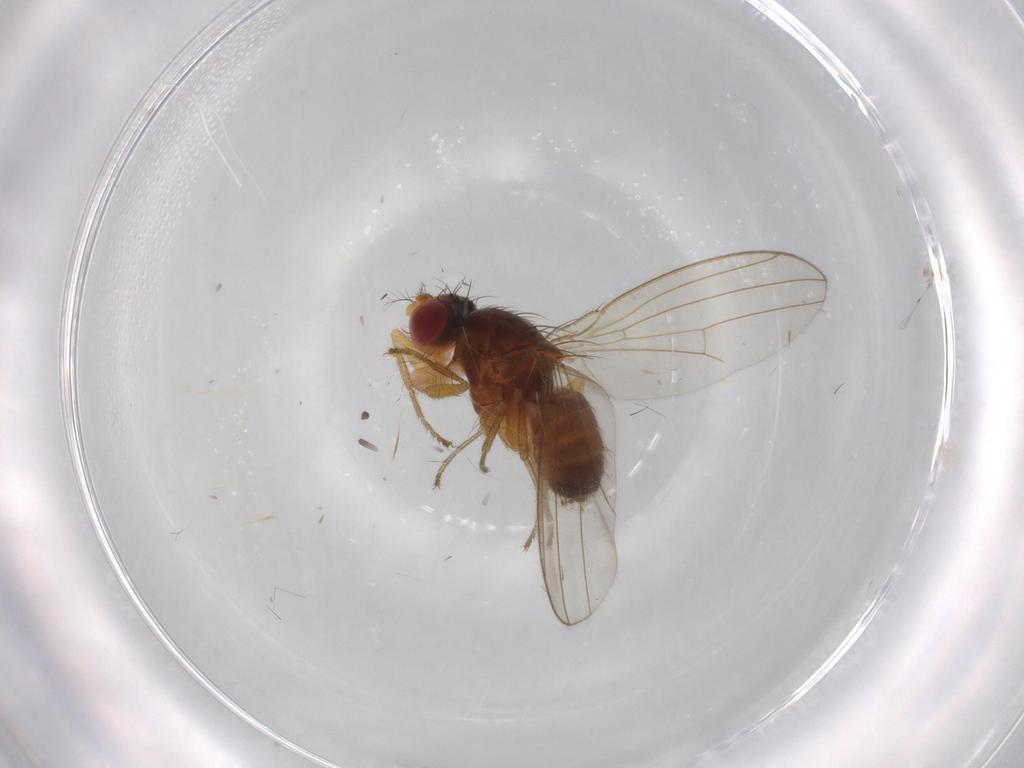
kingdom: Animalia
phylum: Arthropoda
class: Insecta
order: Diptera
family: Drosophilidae
